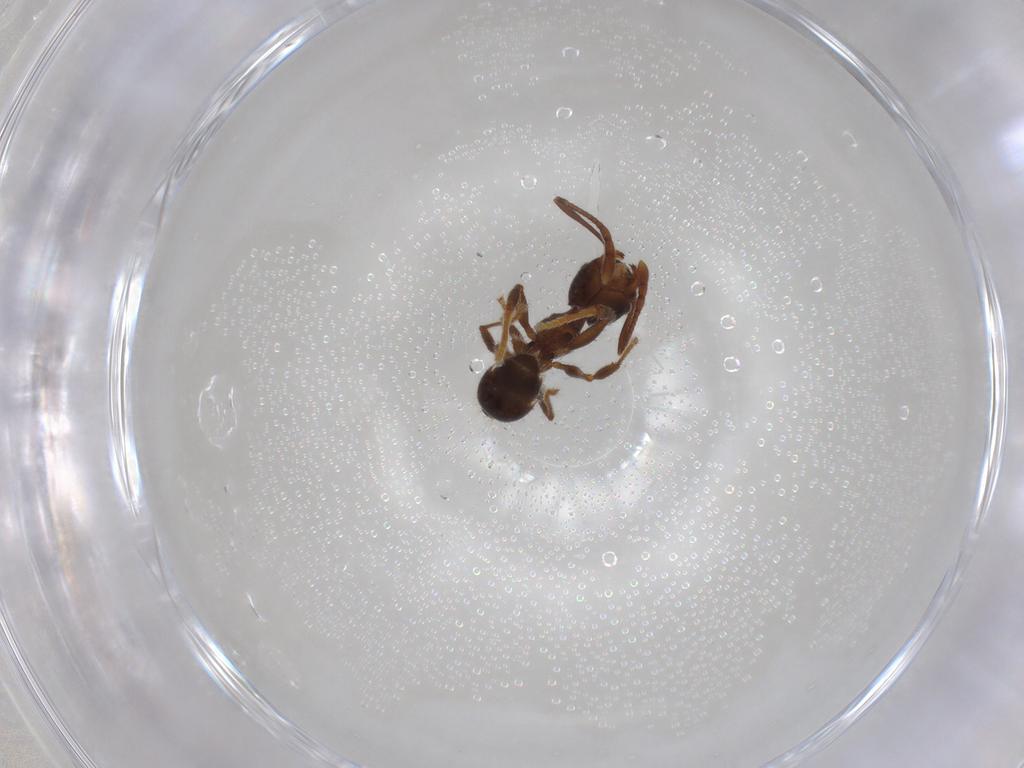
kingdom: Animalia
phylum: Arthropoda
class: Insecta
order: Hymenoptera
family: Formicidae
